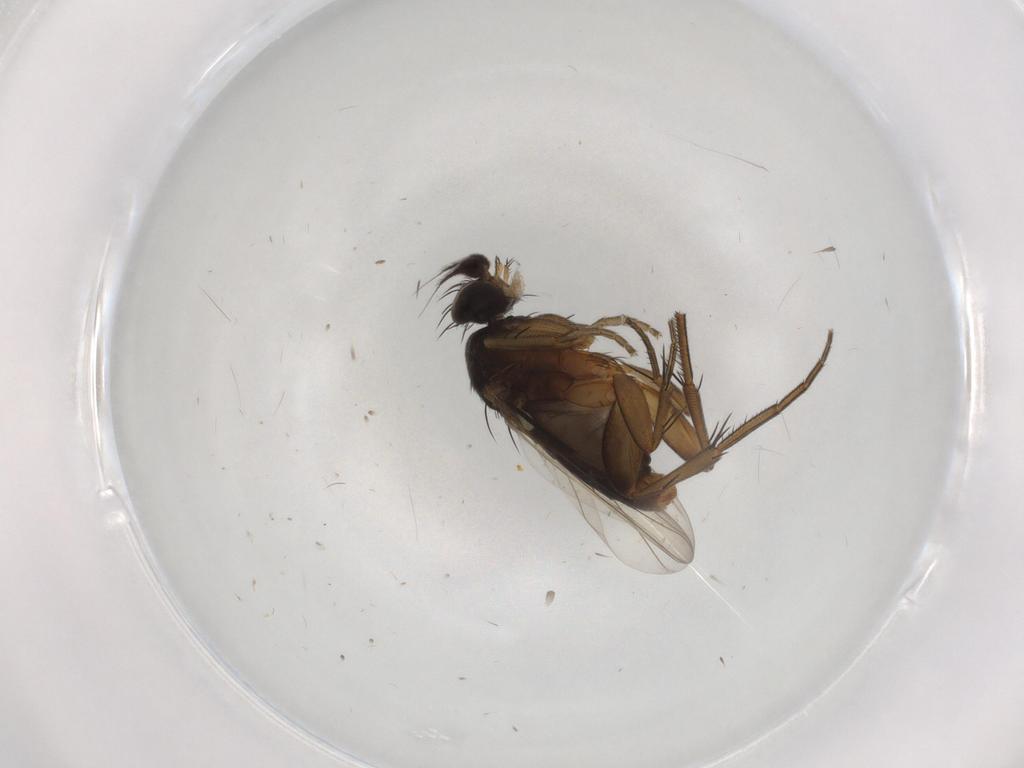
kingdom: Animalia
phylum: Arthropoda
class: Insecta
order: Diptera
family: Phoridae
